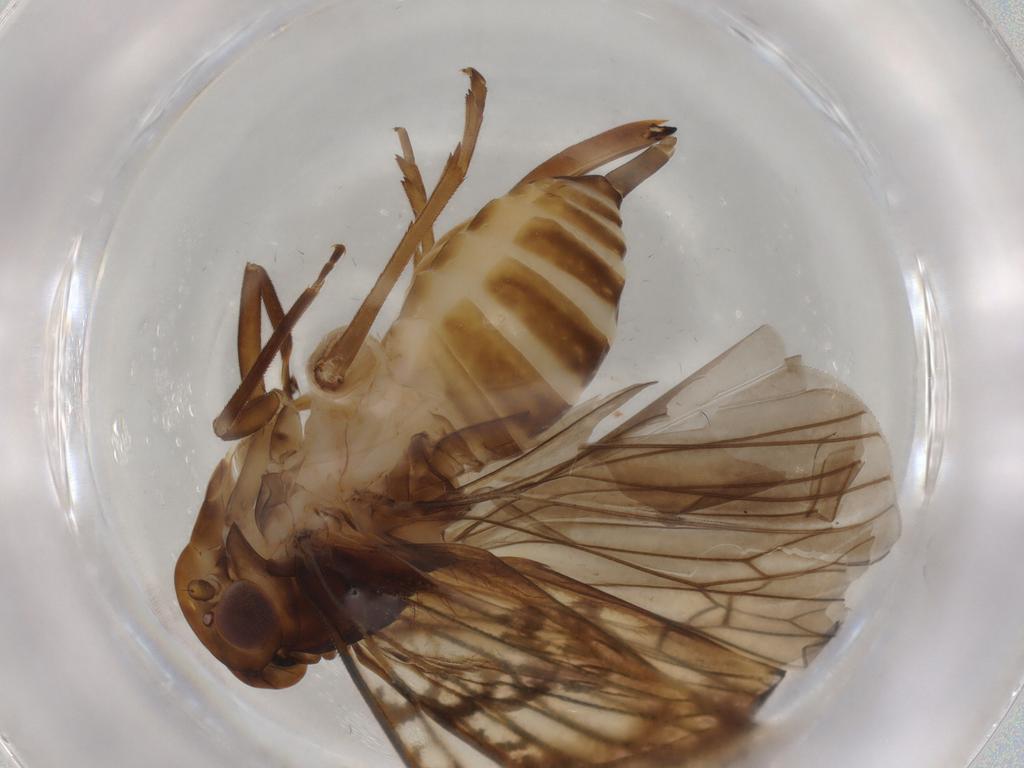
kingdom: Animalia
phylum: Arthropoda
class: Insecta
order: Hemiptera
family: Cixiidae
